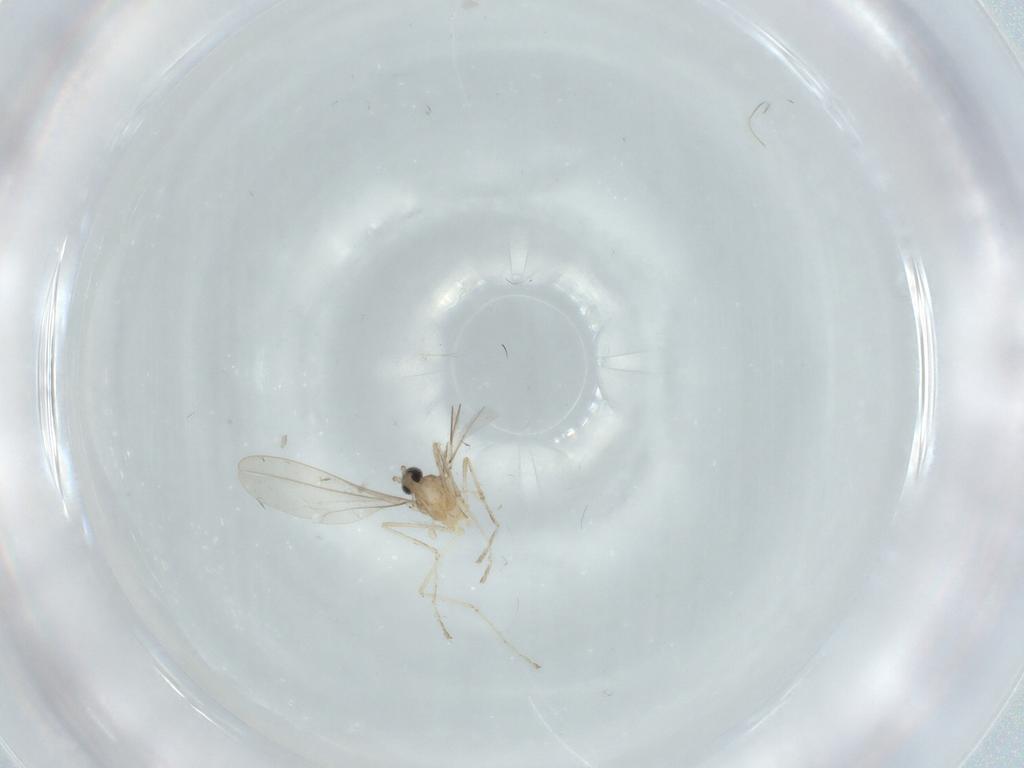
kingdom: Animalia
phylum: Arthropoda
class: Insecta
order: Diptera
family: Cecidomyiidae
